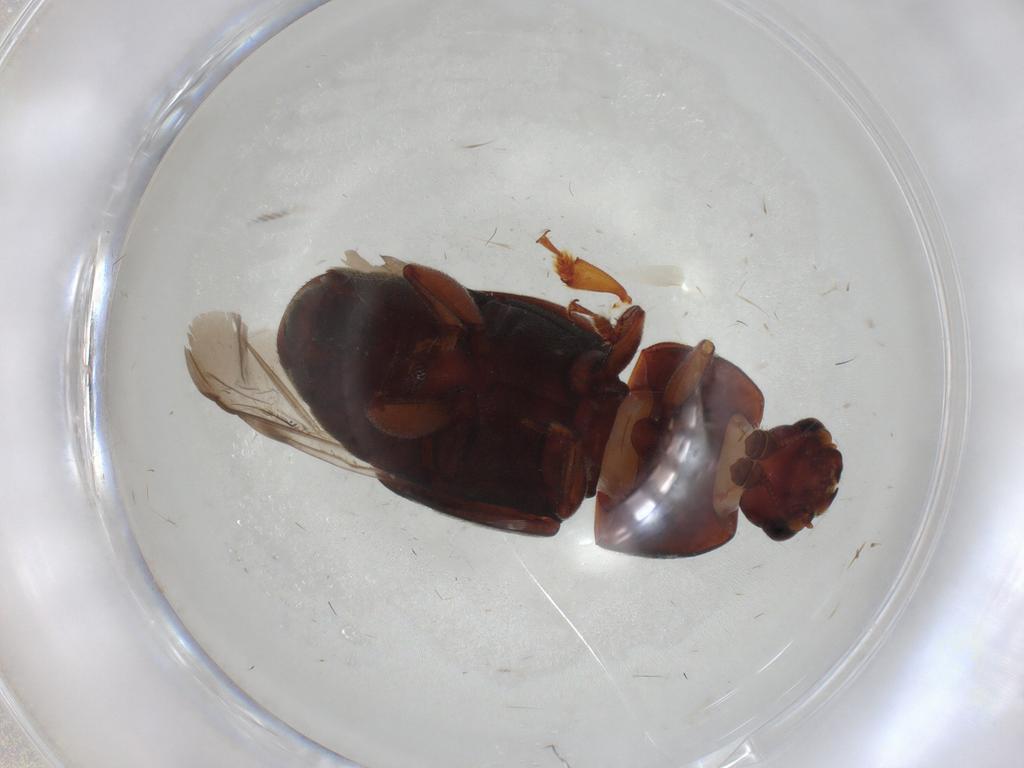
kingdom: Animalia
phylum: Arthropoda
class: Insecta
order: Coleoptera
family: Mycetophagidae
